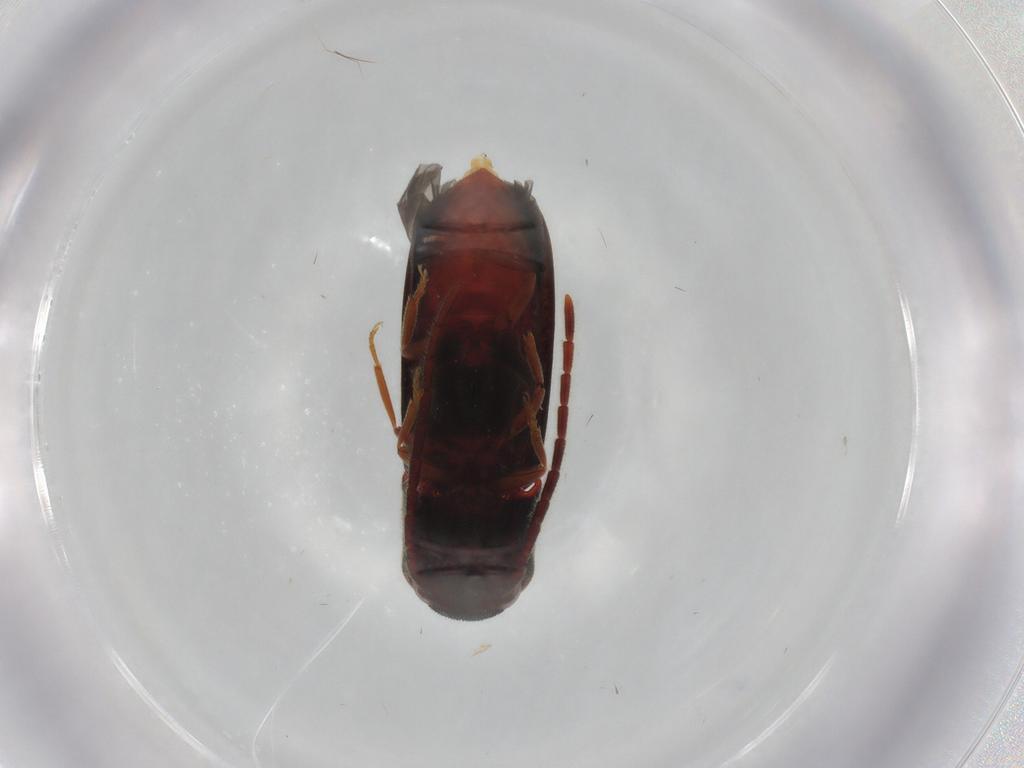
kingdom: Animalia
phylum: Arthropoda
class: Insecta
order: Coleoptera
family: Eucnemidae
